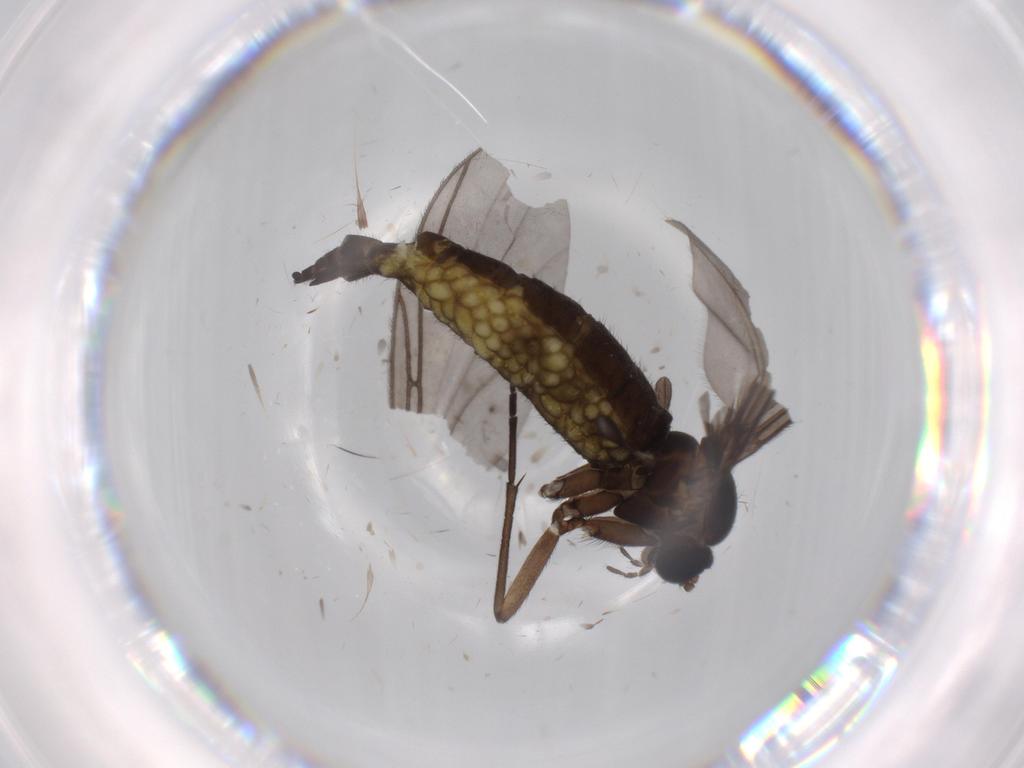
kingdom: Animalia
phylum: Arthropoda
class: Insecta
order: Diptera
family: Sciaridae
